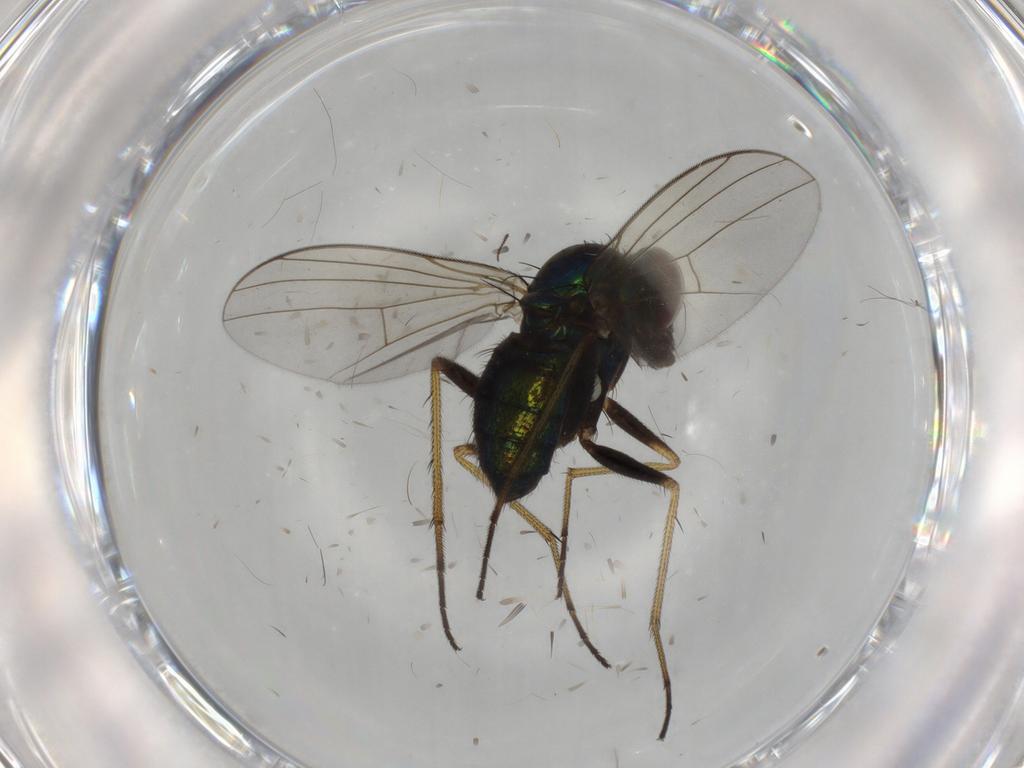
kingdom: Animalia
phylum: Arthropoda
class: Insecta
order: Diptera
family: Dolichopodidae
